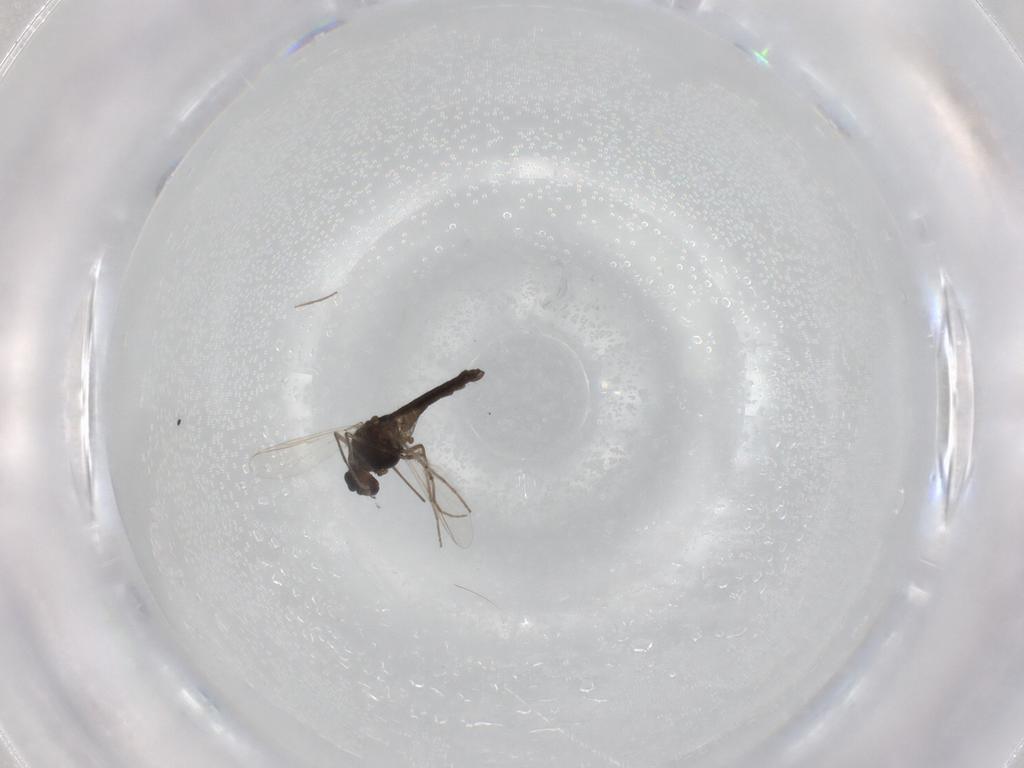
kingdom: Animalia
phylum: Arthropoda
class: Insecta
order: Diptera
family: Chironomidae
